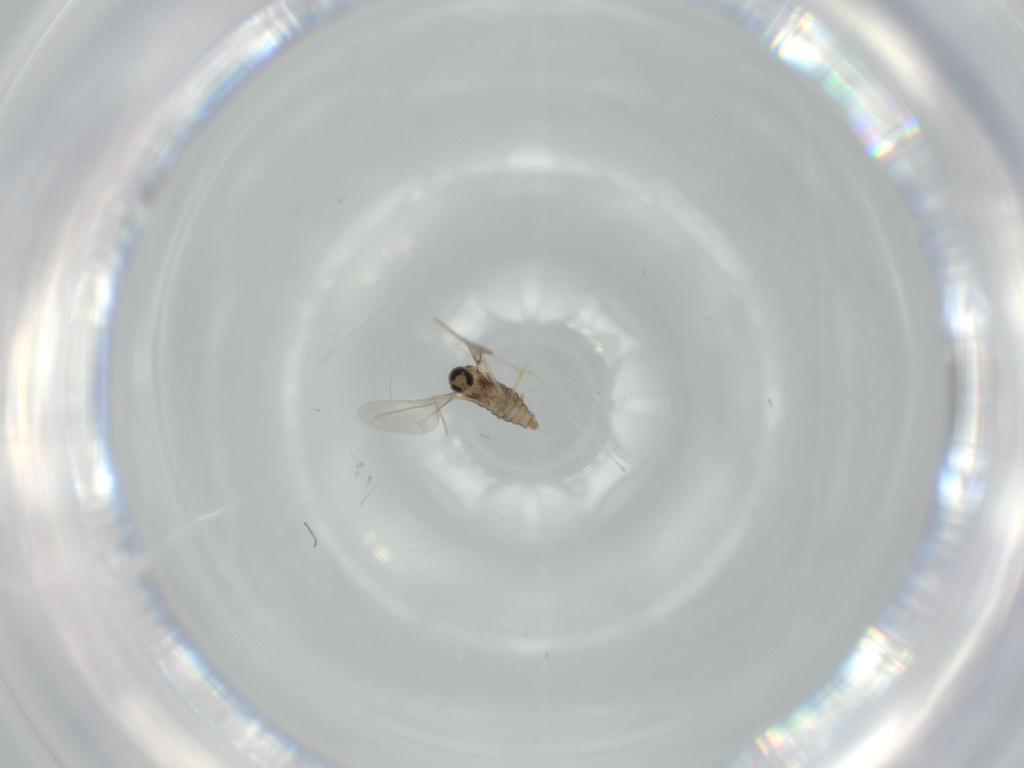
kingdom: Animalia
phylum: Arthropoda
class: Insecta
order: Diptera
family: Cecidomyiidae
